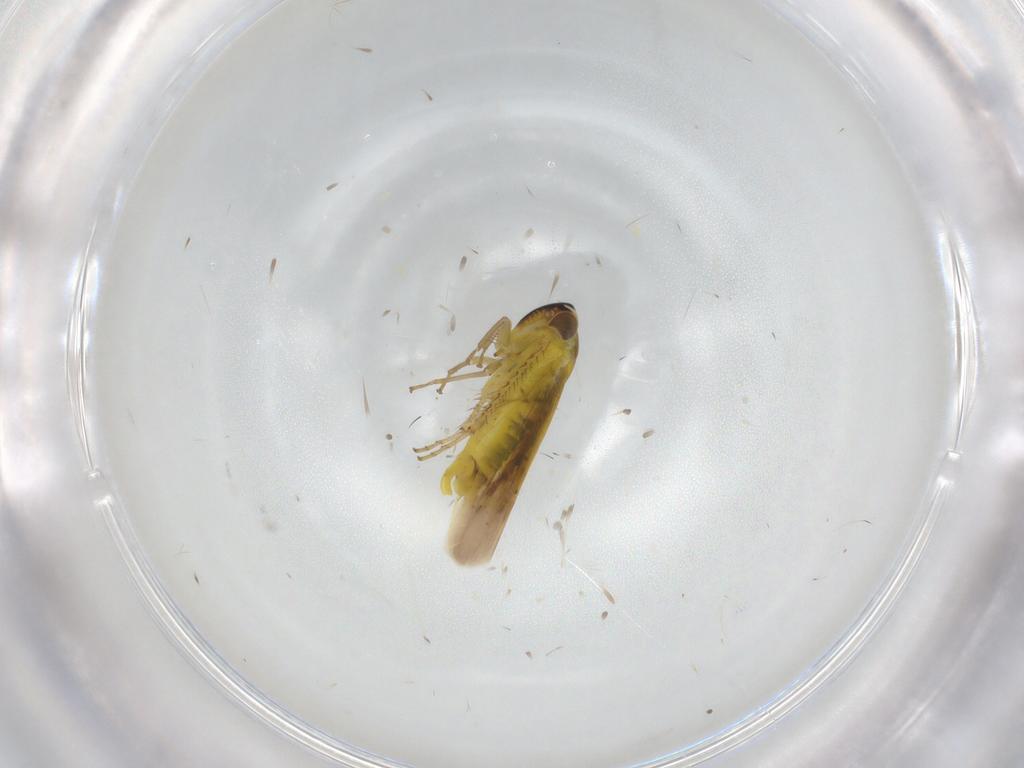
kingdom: Animalia
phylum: Arthropoda
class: Insecta
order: Hemiptera
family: Cicadellidae
